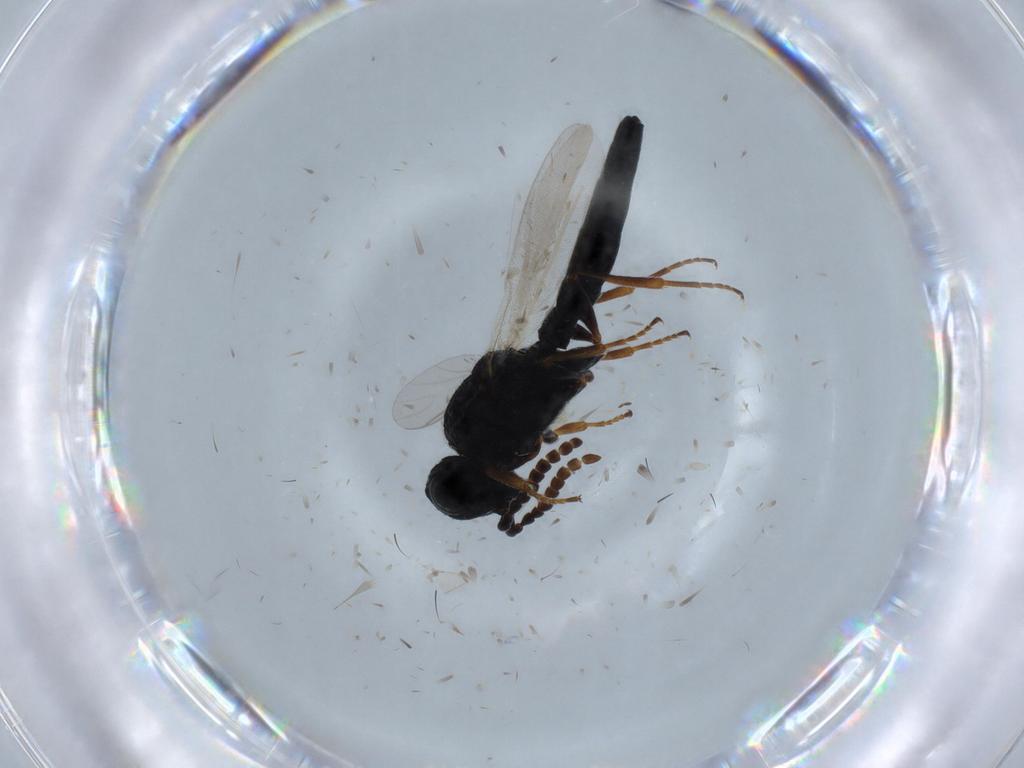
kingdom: Animalia
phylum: Arthropoda
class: Insecta
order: Hymenoptera
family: Scelionidae
